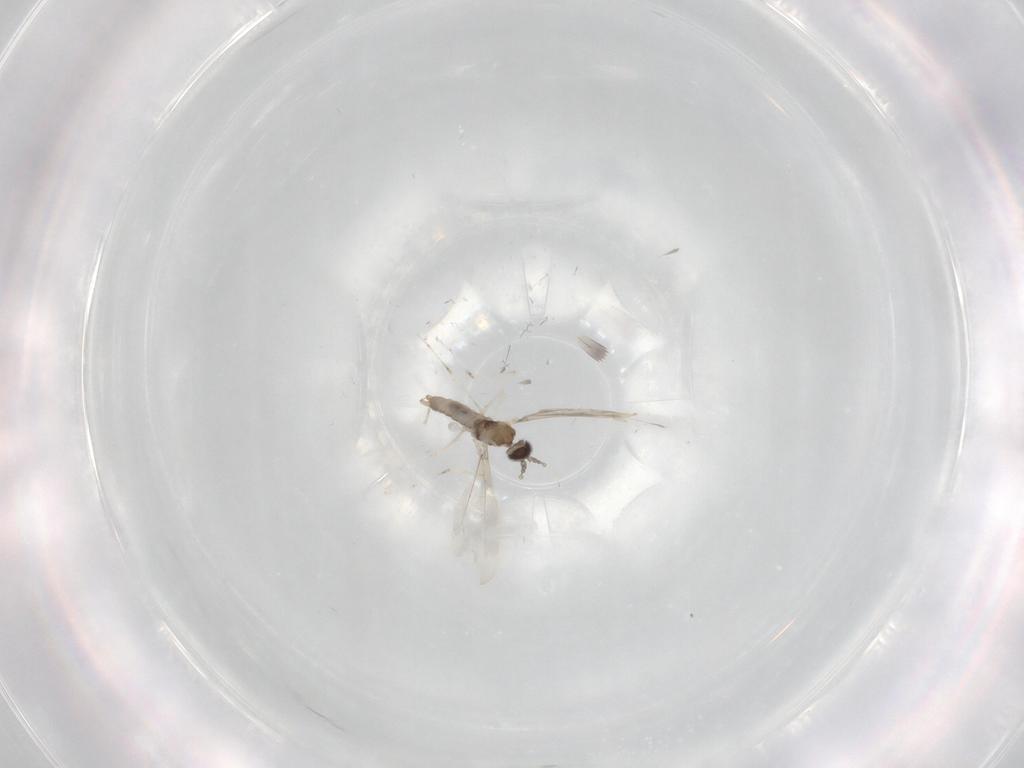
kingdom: Animalia
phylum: Arthropoda
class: Insecta
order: Diptera
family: Cecidomyiidae
